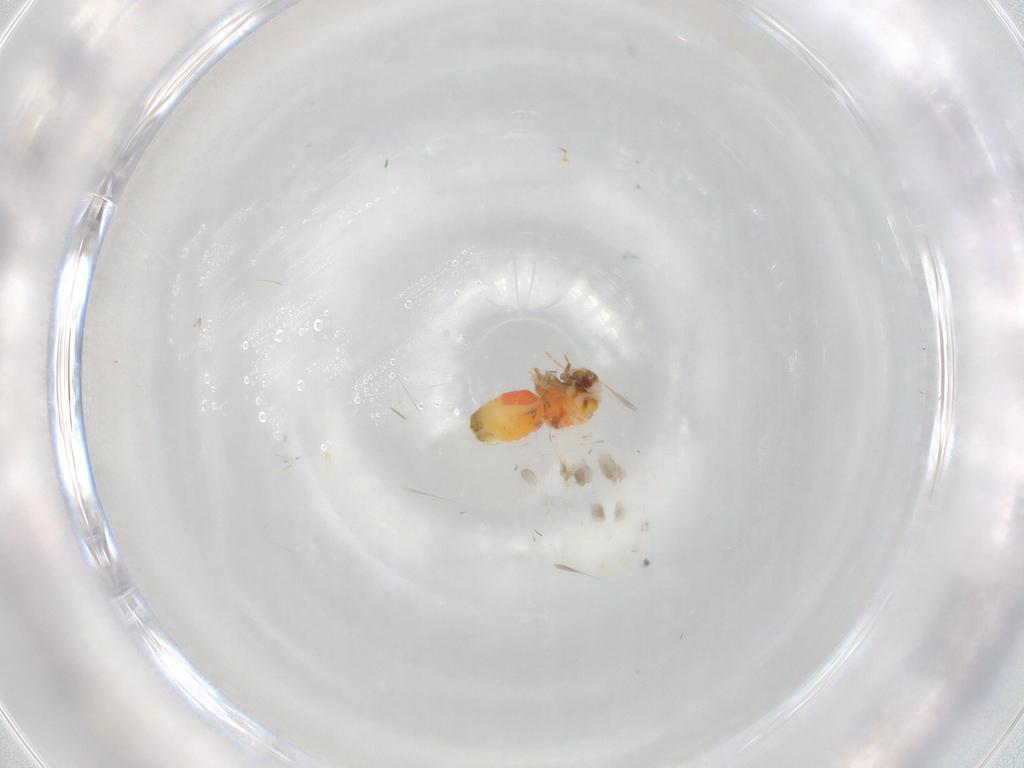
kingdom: Animalia
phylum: Arthropoda
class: Insecta
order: Hemiptera
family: Aleyrodidae
